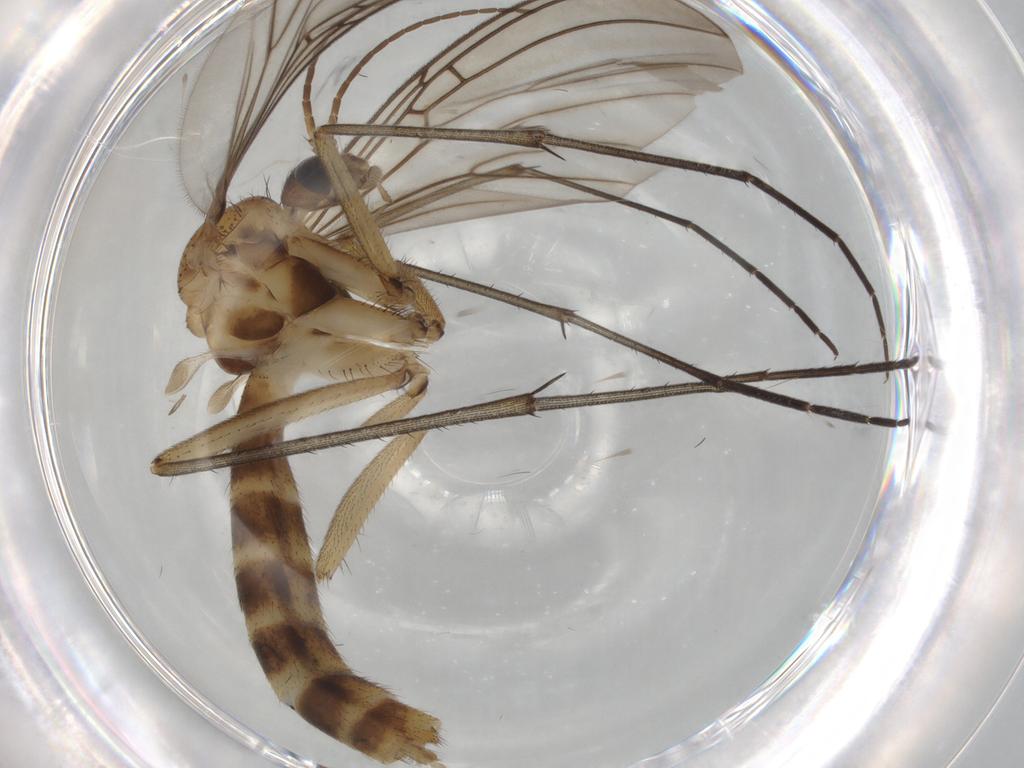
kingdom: Animalia
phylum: Arthropoda
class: Insecta
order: Diptera
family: Mycetophilidae
